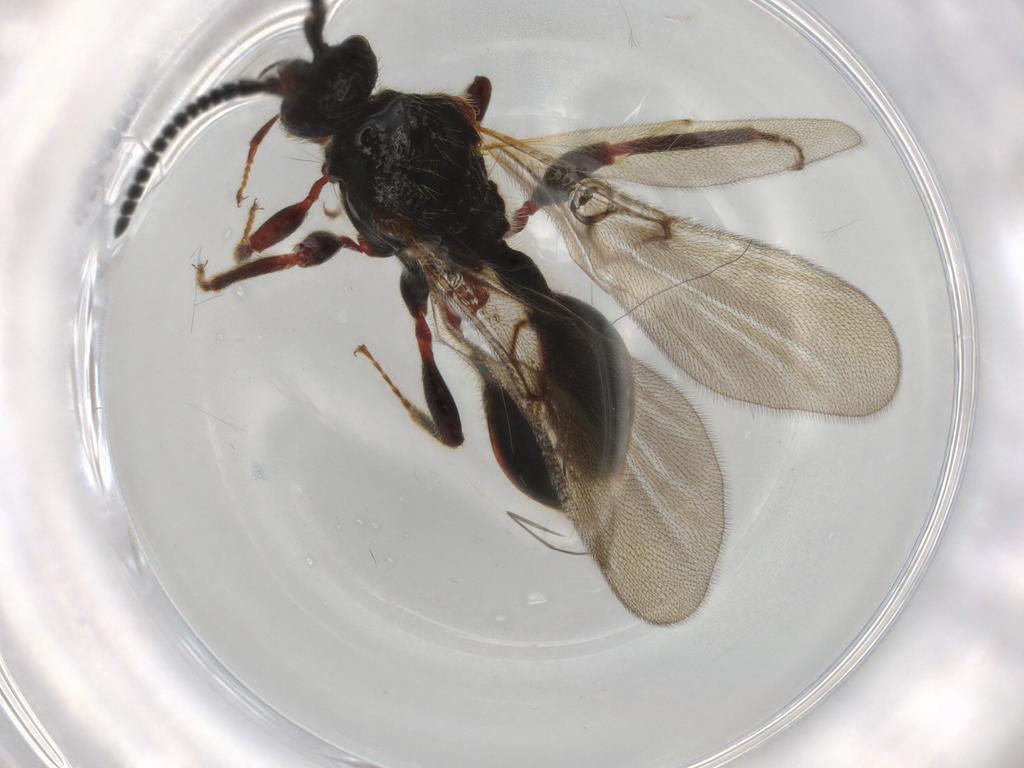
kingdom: Animalia
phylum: Arthropoda
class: Insecta
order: Hymenoptera
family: Diapriidae
